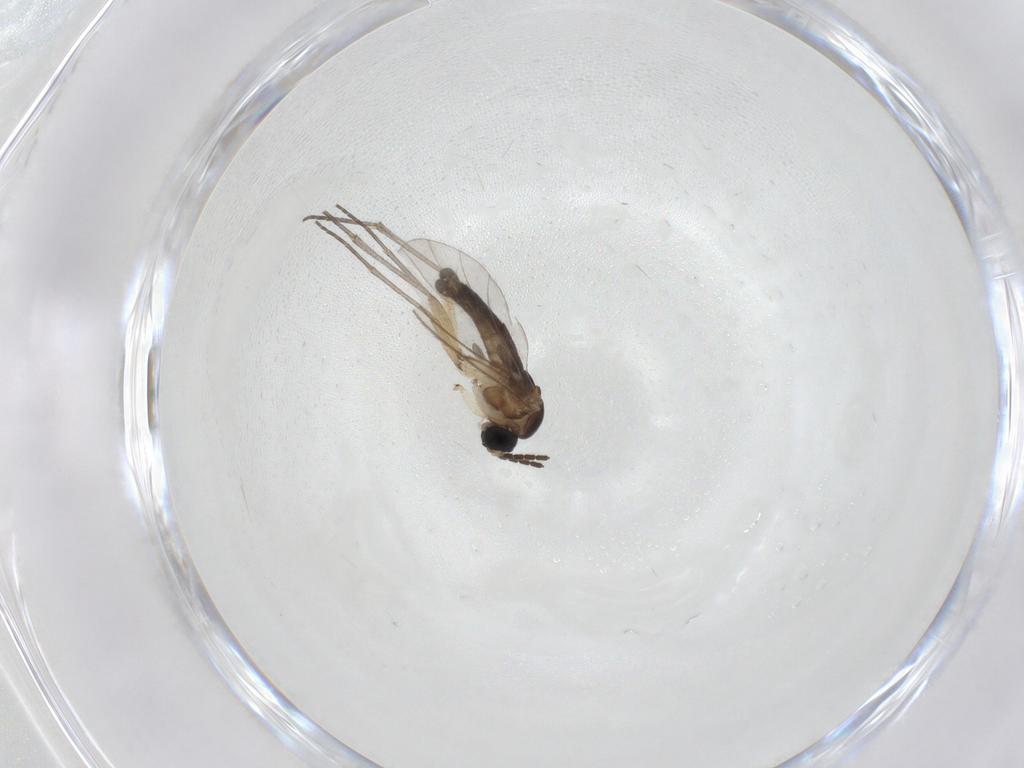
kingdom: Animalia
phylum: Arthropoda
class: Insecta
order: Diptera
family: Sciaridae
